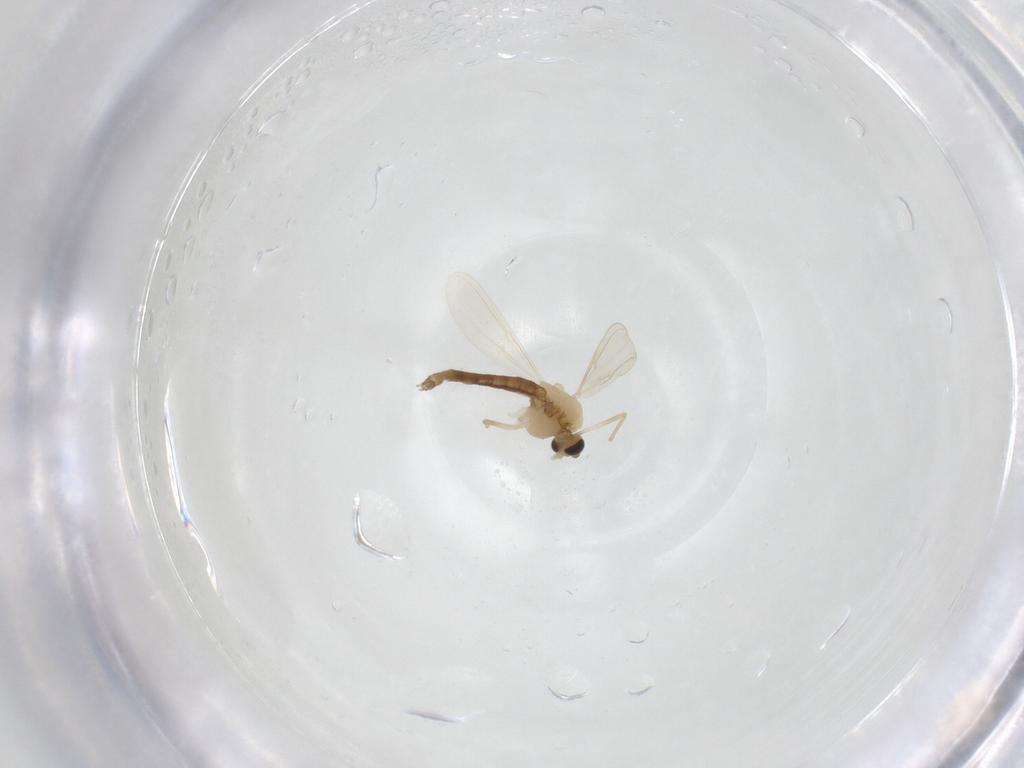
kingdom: Animalia
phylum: Arthropoda
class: Insecta
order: Diptera
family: Chironomidae
